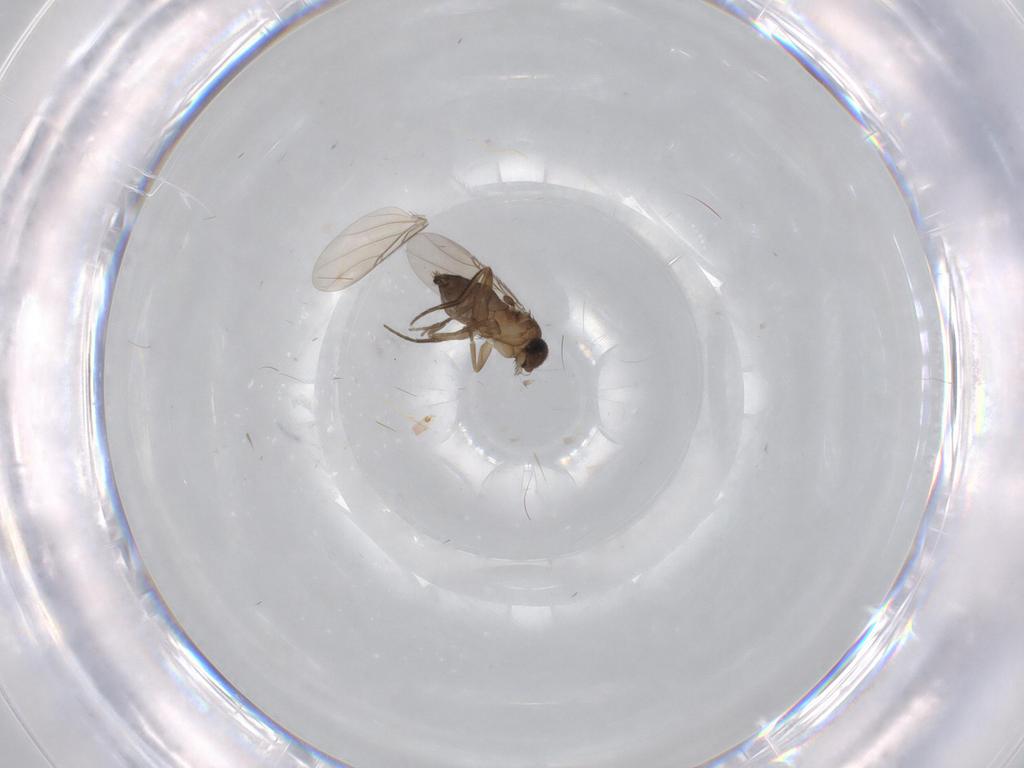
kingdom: Animalia
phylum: Arthropoda
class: Insecta
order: Diptera
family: Phoridae
